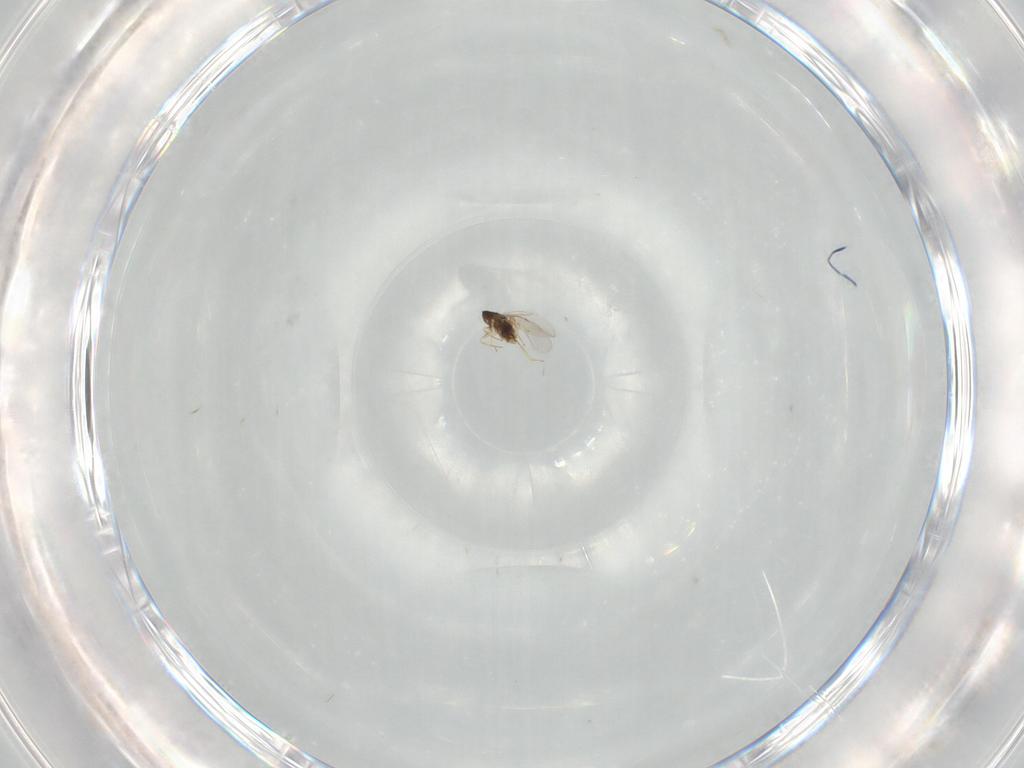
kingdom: Animalia
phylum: Arthropoda
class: Insecta
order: Hymenoptera
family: Encyrtidae
